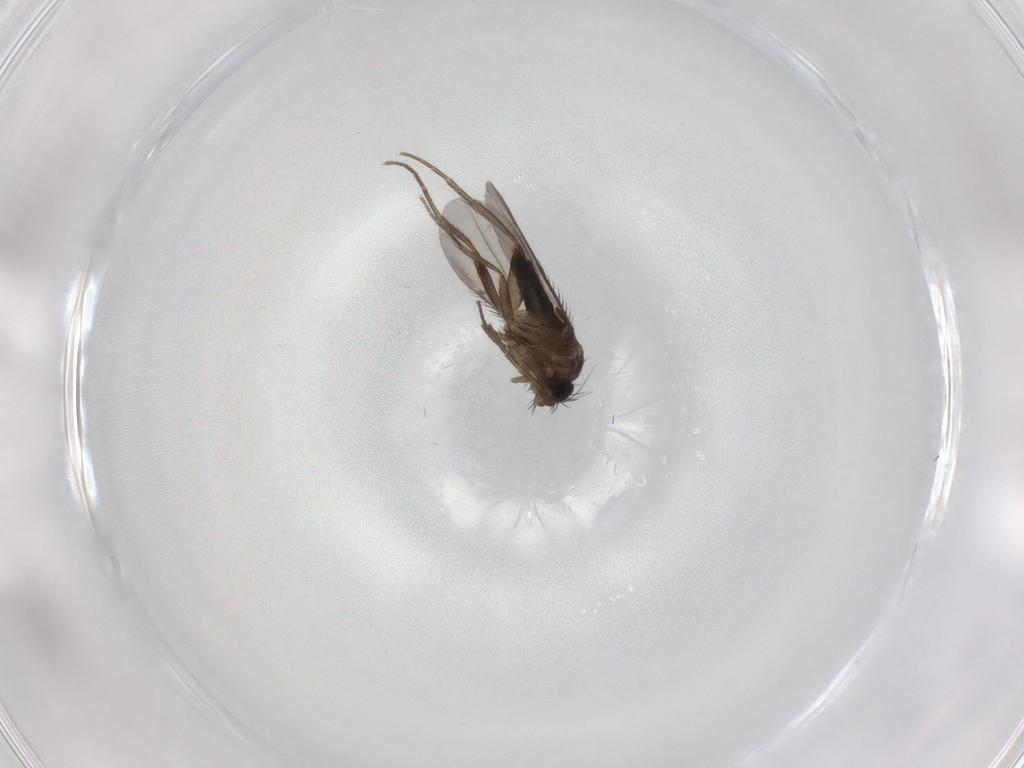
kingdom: Animalia
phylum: Arthropoda
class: Insecta
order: Diptera
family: Phoridae
